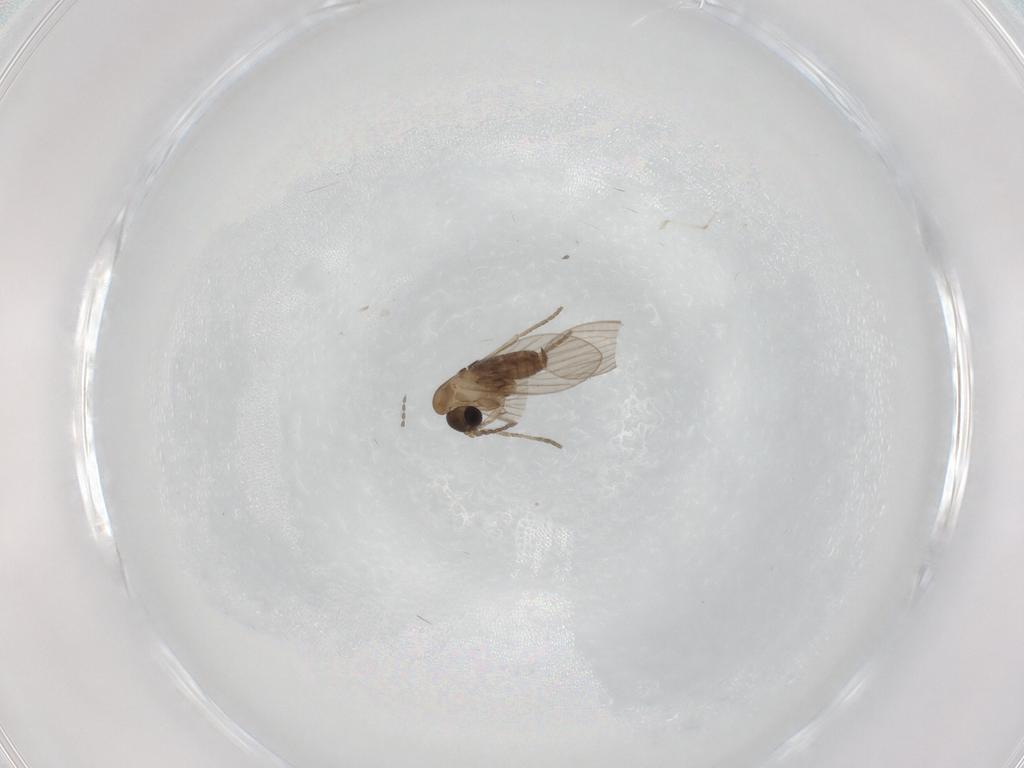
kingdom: Animalia
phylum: Arthropoda
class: Insecta
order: Diptera
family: Cecidomyiidae
